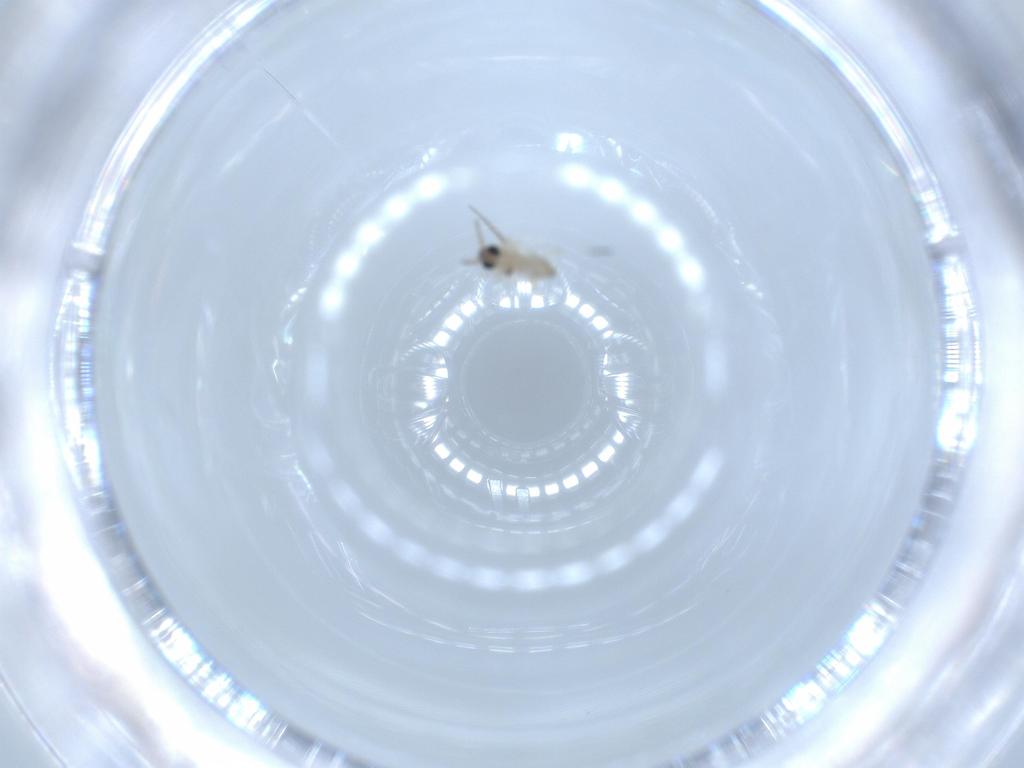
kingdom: Animalia
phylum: Arthropoda
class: Insecta
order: Diptera
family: Cecidomyiidae
